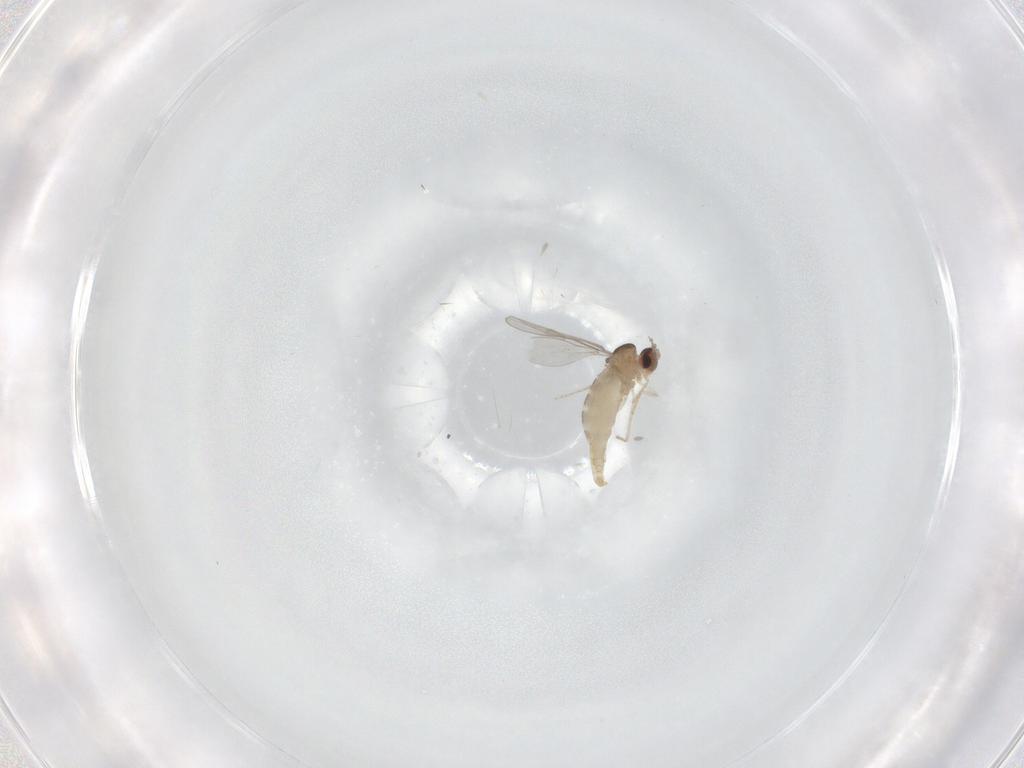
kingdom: Animalia
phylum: Arthropoda
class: Insecta
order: Diptera
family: Cecidomyiidae
